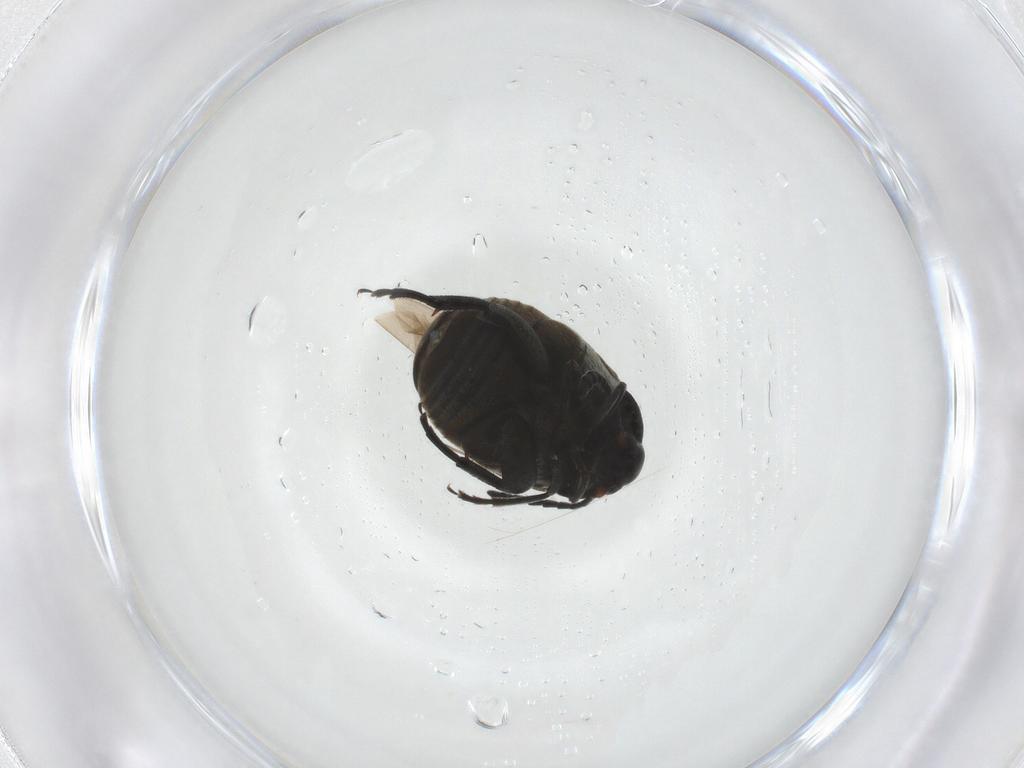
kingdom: Animalia
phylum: Arthropoda
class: Insecta
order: Coleoptera
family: Chrysomelidae
